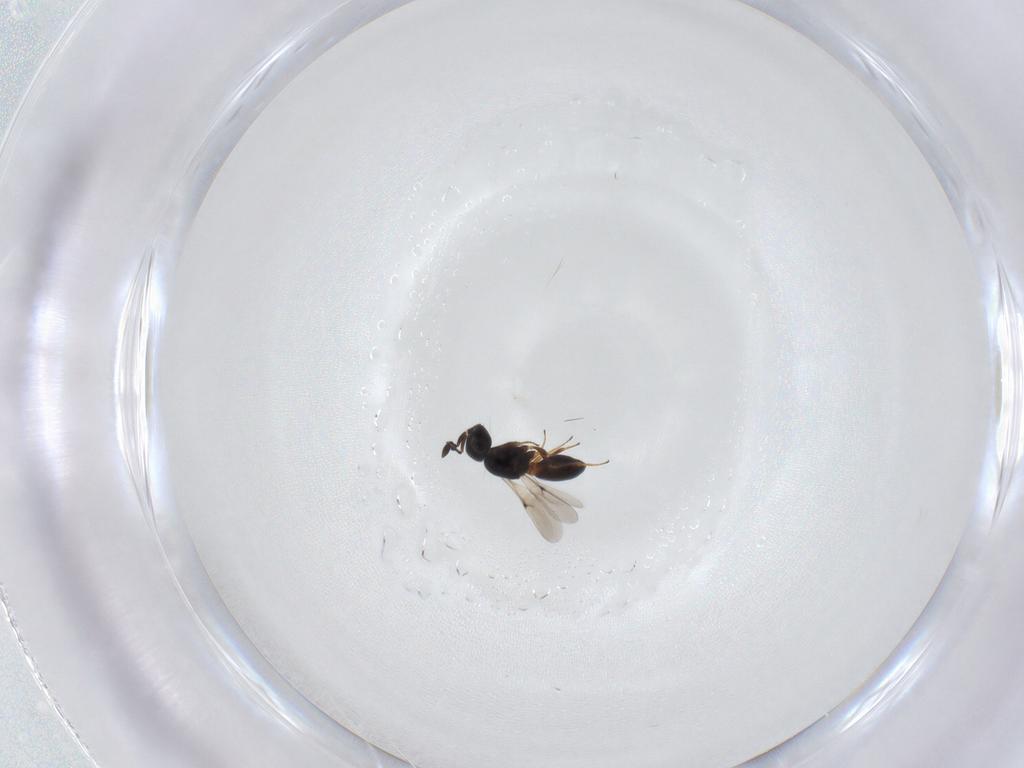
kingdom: Animalia
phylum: Arthropoda
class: Insecta
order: Hymenoptera
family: Scelionidae
